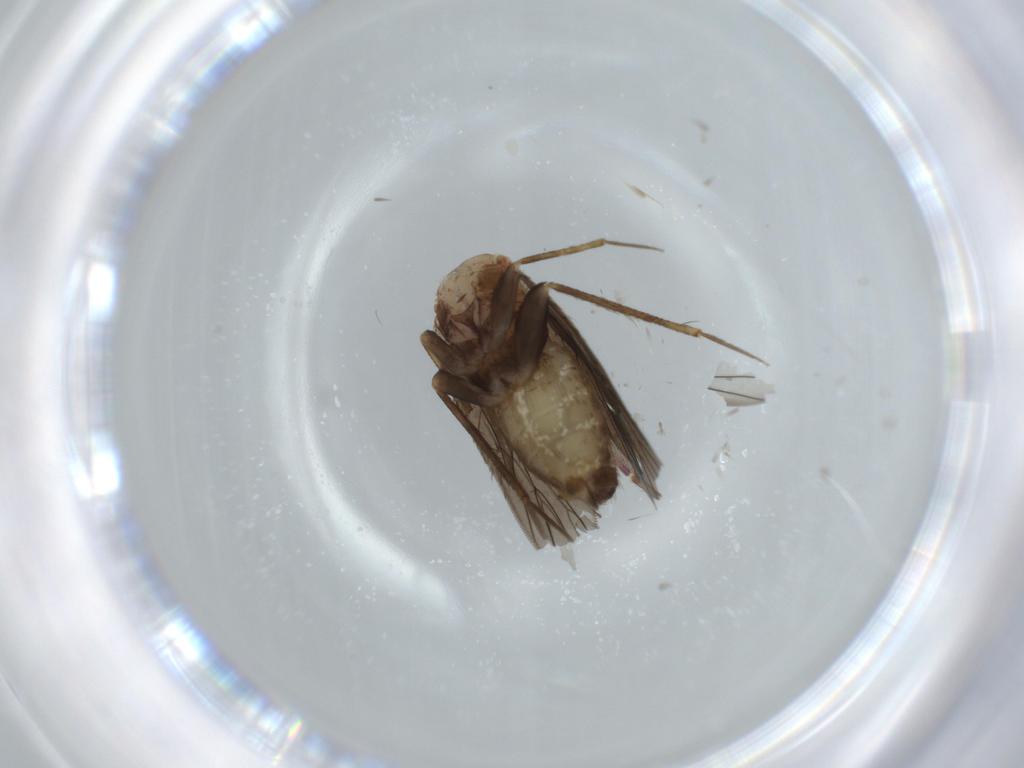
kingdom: Animalia
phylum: Arthropoda
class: Insecta
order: Psocodea
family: Lepidopsocidae
